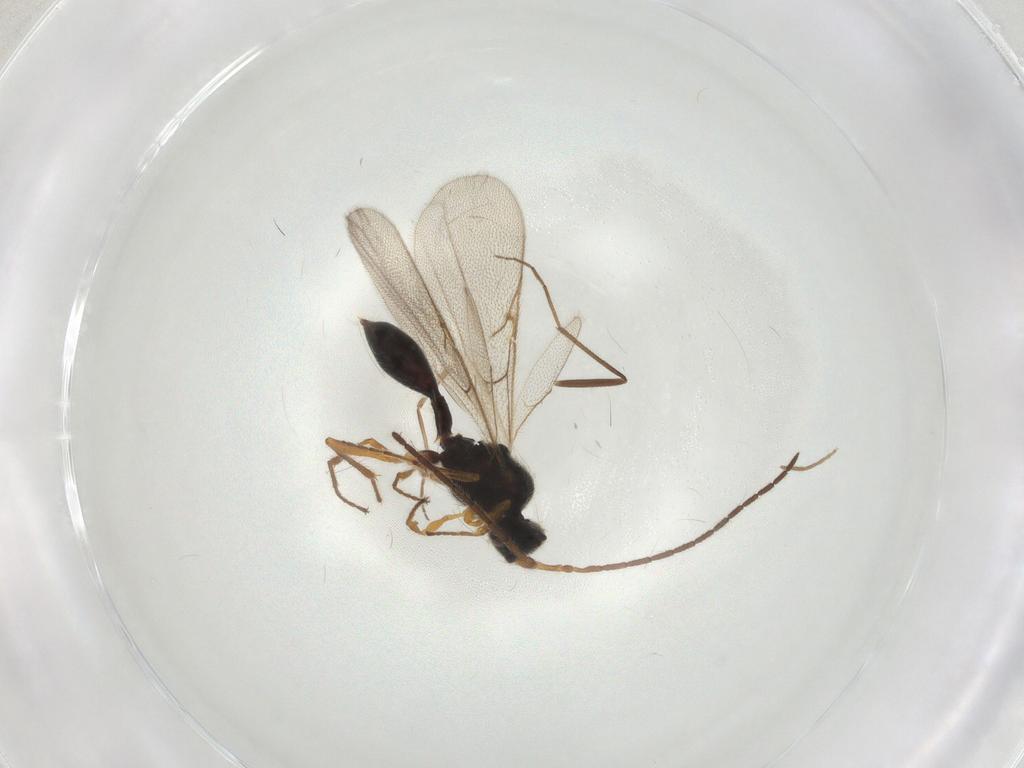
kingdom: Animalia
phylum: Arthropoda
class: Insecta
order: Hymenoptera
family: Diapriidae
